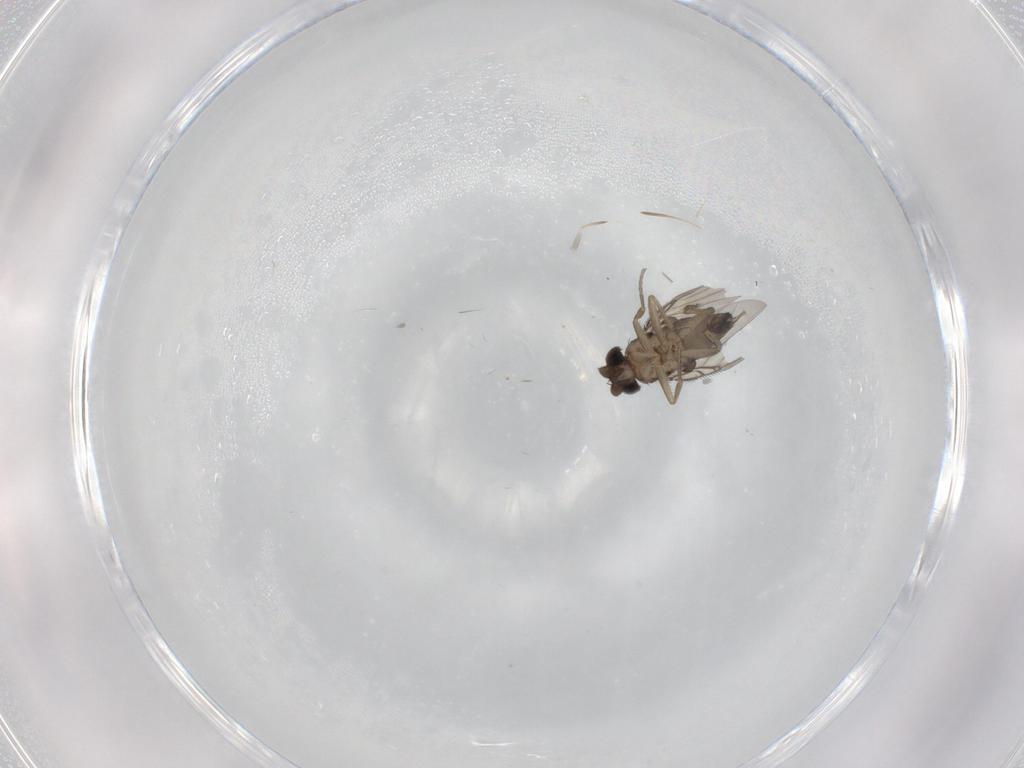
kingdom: Animalia
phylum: Arthropoda
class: Insecta
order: Diptera
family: Phoridae
